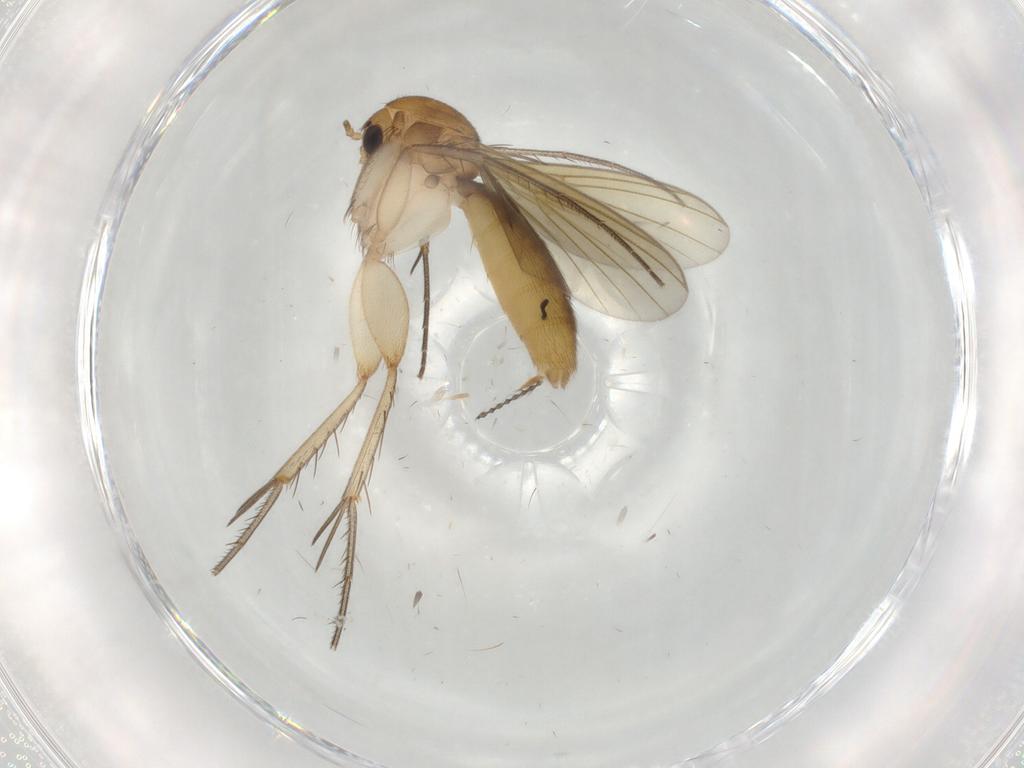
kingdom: Animalia
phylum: Arthropoda
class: Insecta
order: Diptera
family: Mycetophilidae
